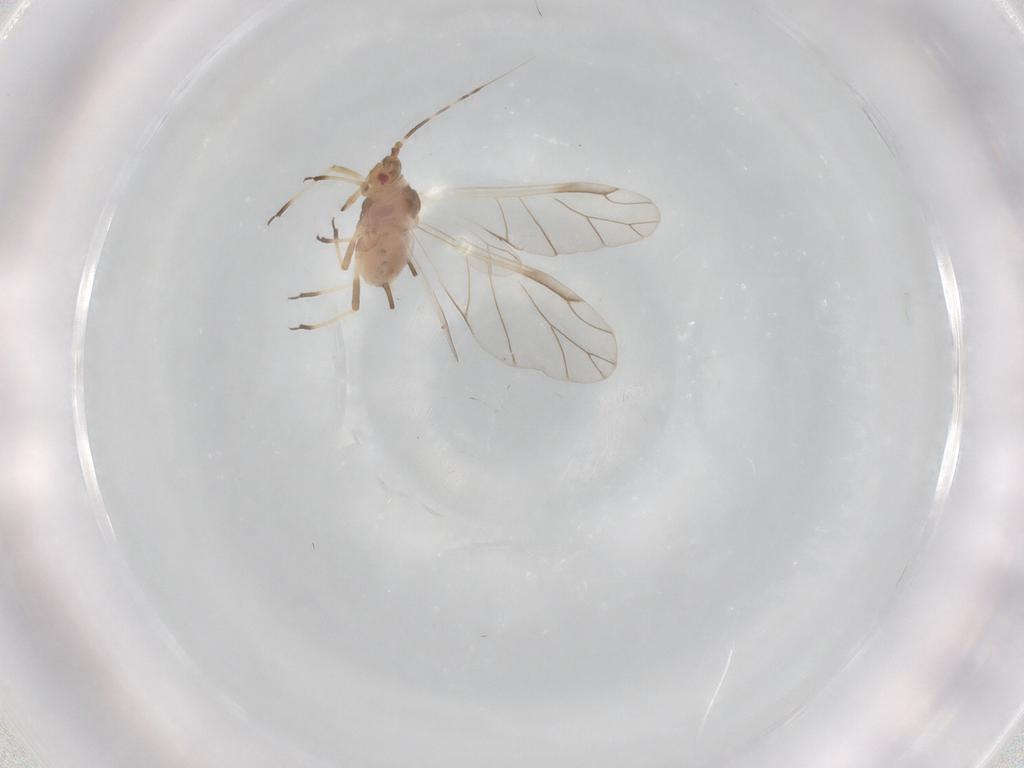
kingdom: Animalia
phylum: Arthropoda
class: Insecta
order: Hemiptera
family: Aphididae
